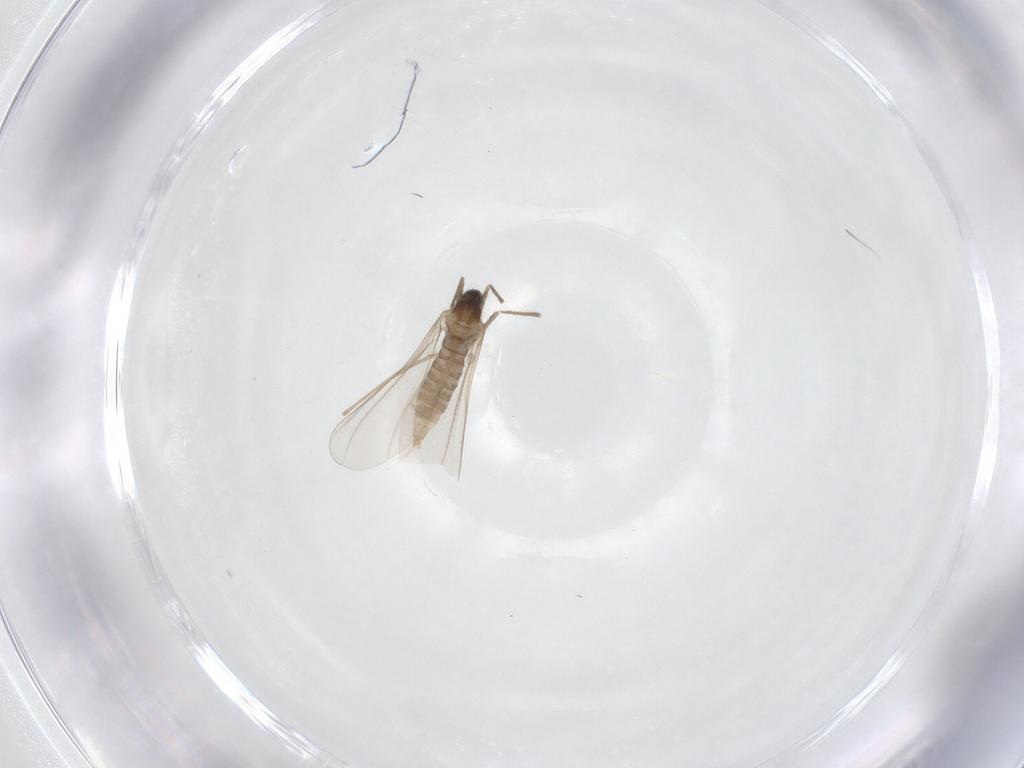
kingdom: Animalia
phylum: Arthropoda
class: Insecta
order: Diptera
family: Cecidomyiidae
